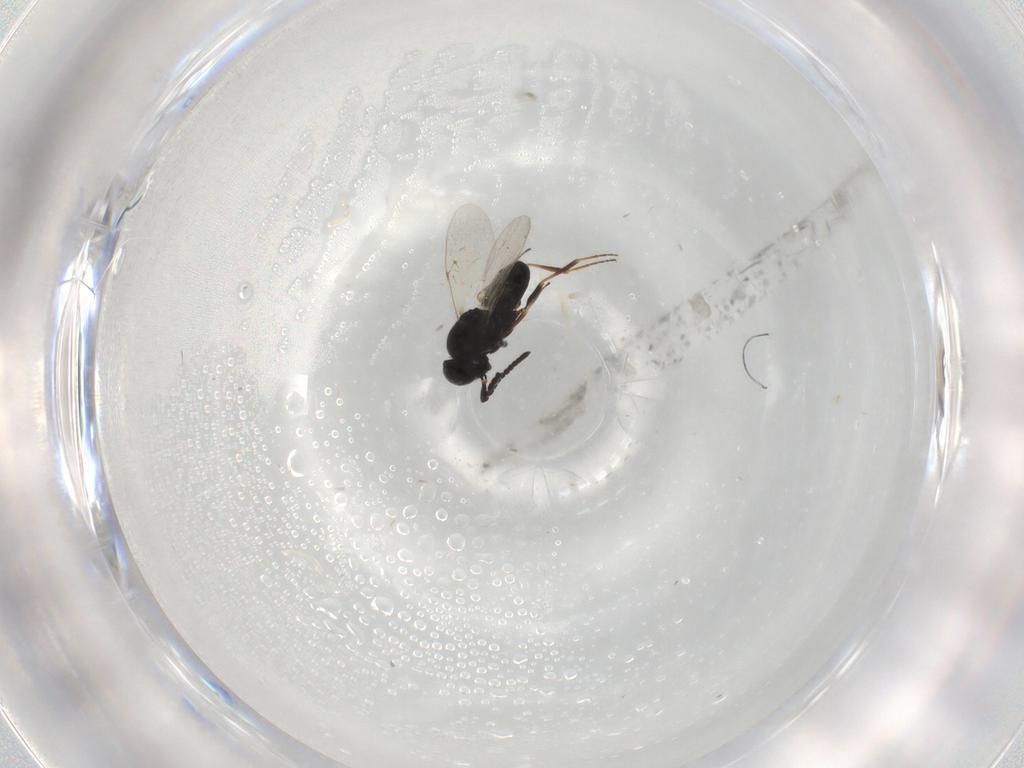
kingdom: Animalia
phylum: Arthropoda
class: Insecta
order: Hymenoptera
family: Scelionidae
